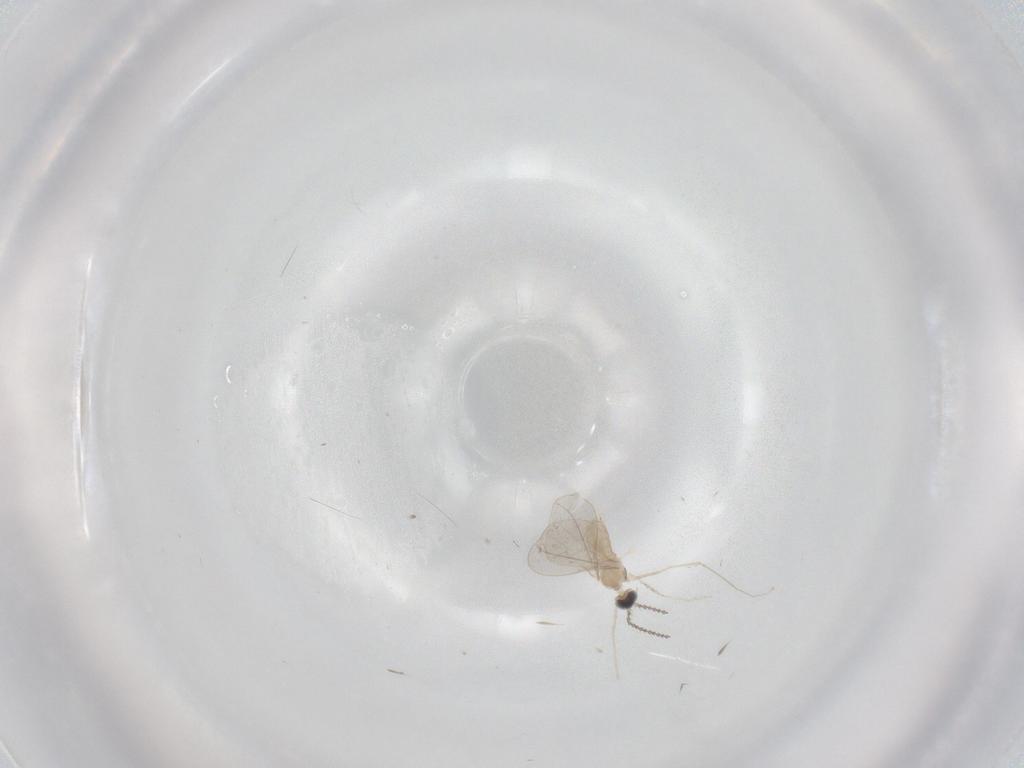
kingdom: Animalia
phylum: Arthropoda
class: Insecta
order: Diptera
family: Cecidomyiidae
